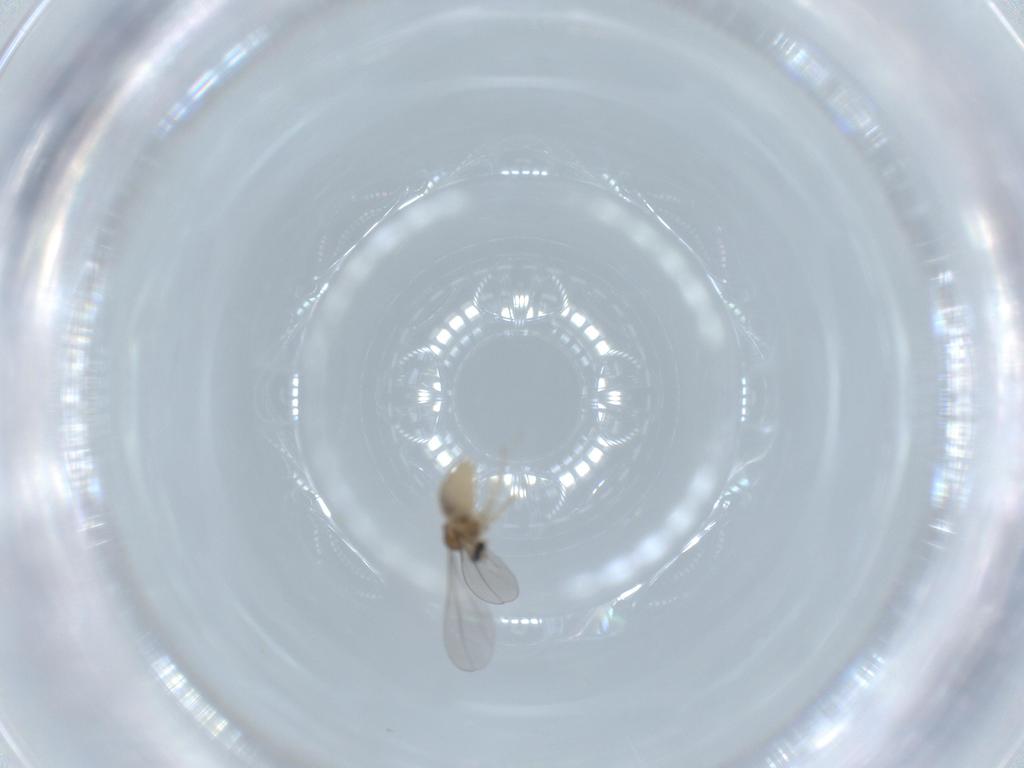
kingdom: Animalia
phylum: Arthropoda
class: Insecta
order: Diptera
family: Cecidomyiidae
